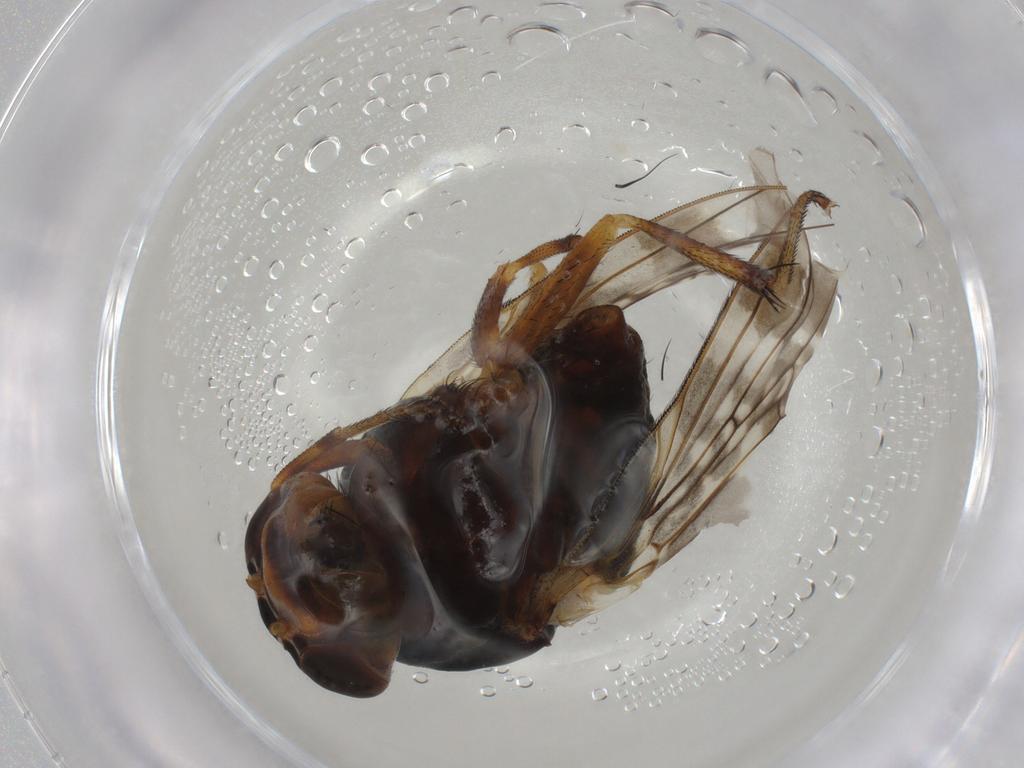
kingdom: Animalia
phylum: Arthropoda
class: Insecta
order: Diptera
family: Lauxaniidae
